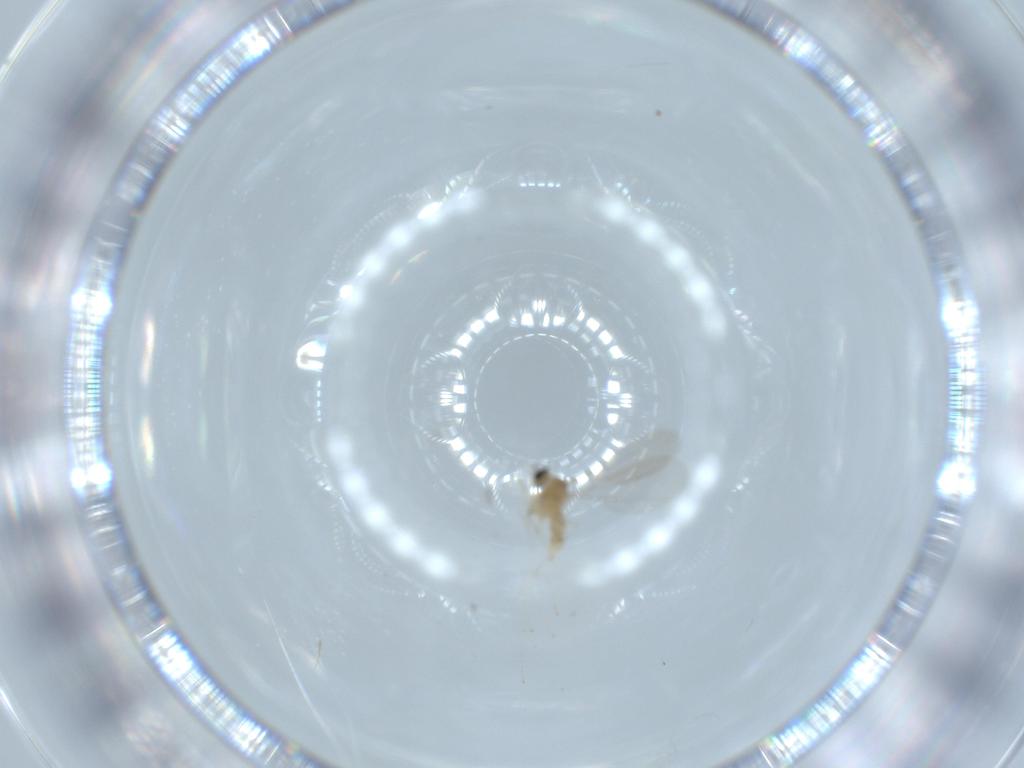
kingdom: Animalia
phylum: Arthropoda
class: Insecta
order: Diptera
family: Cecidomyiidae
